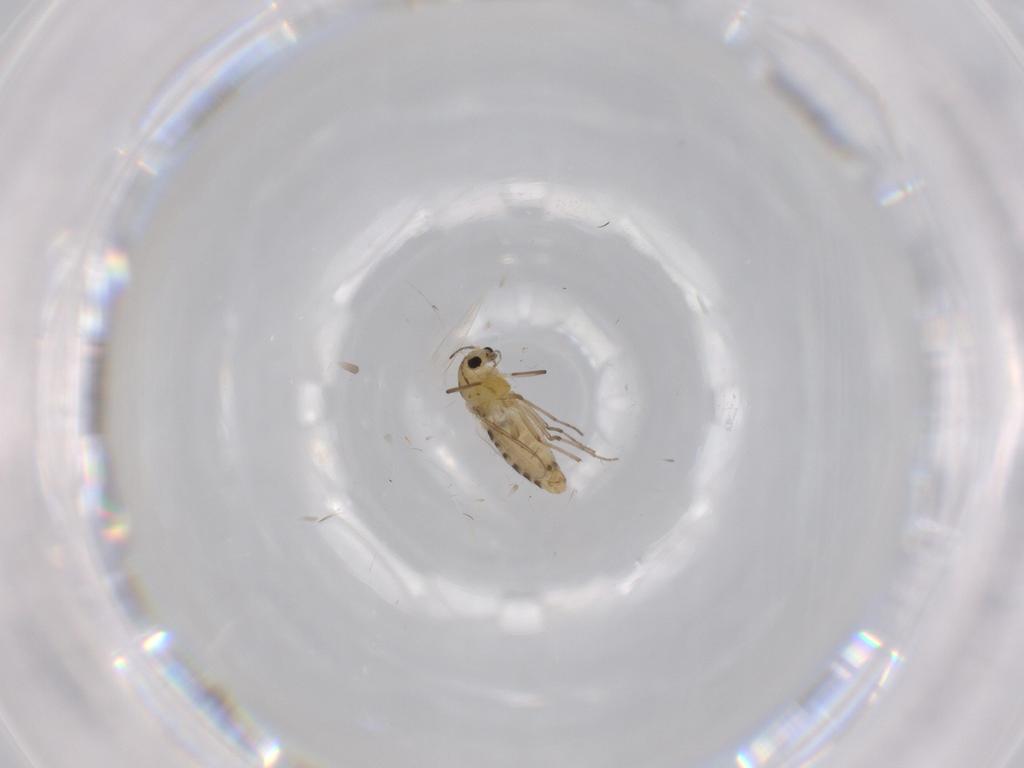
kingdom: Animalia
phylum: Arthropoda
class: Insecta
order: Diptera
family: Chironomidae
